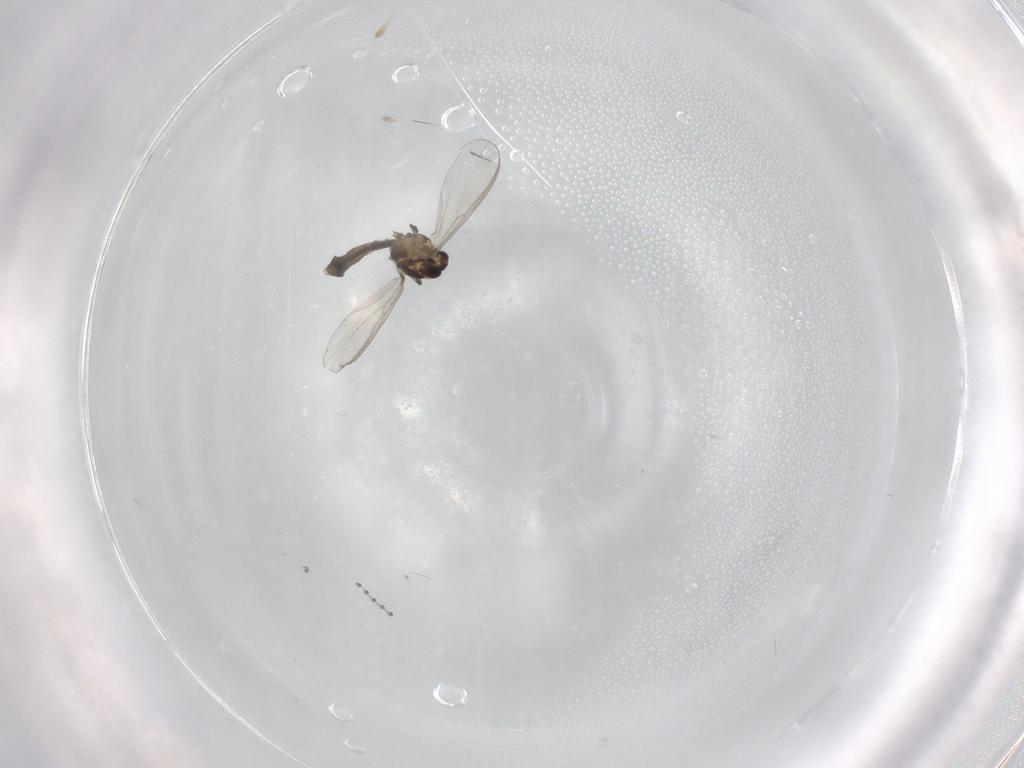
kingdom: Animalia
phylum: Arthropoda
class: Insecta
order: Diptera
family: Chironomidae
